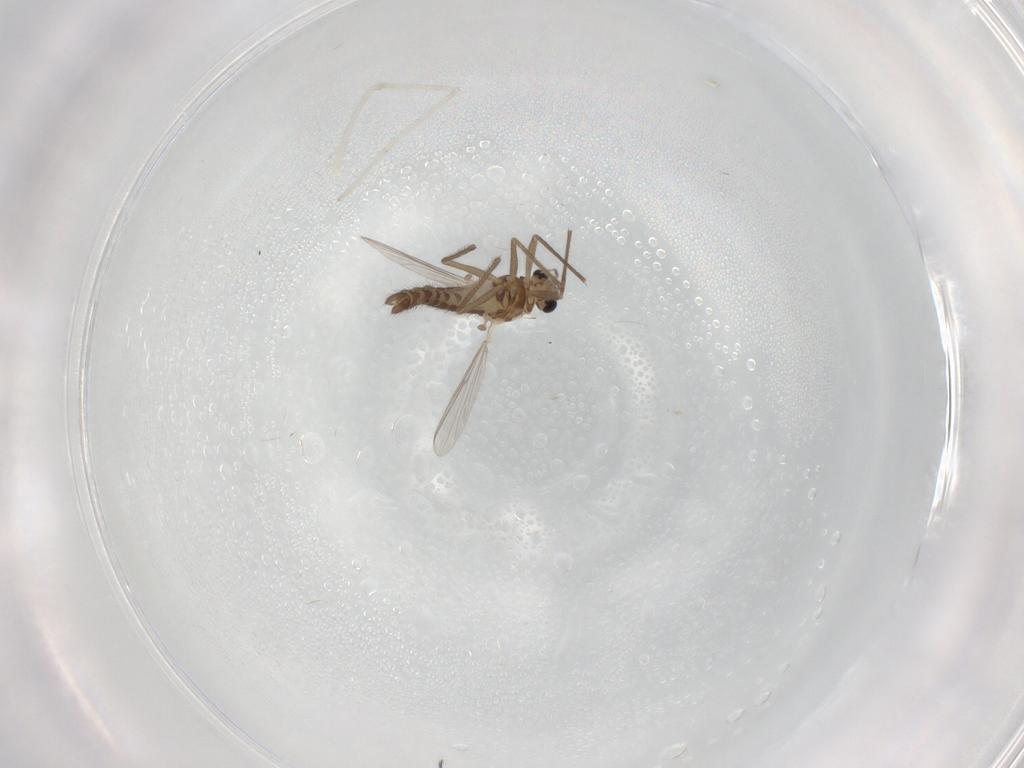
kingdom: Animalia
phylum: Arthropoda
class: Insecta
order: Diptera
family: Chironomidae
